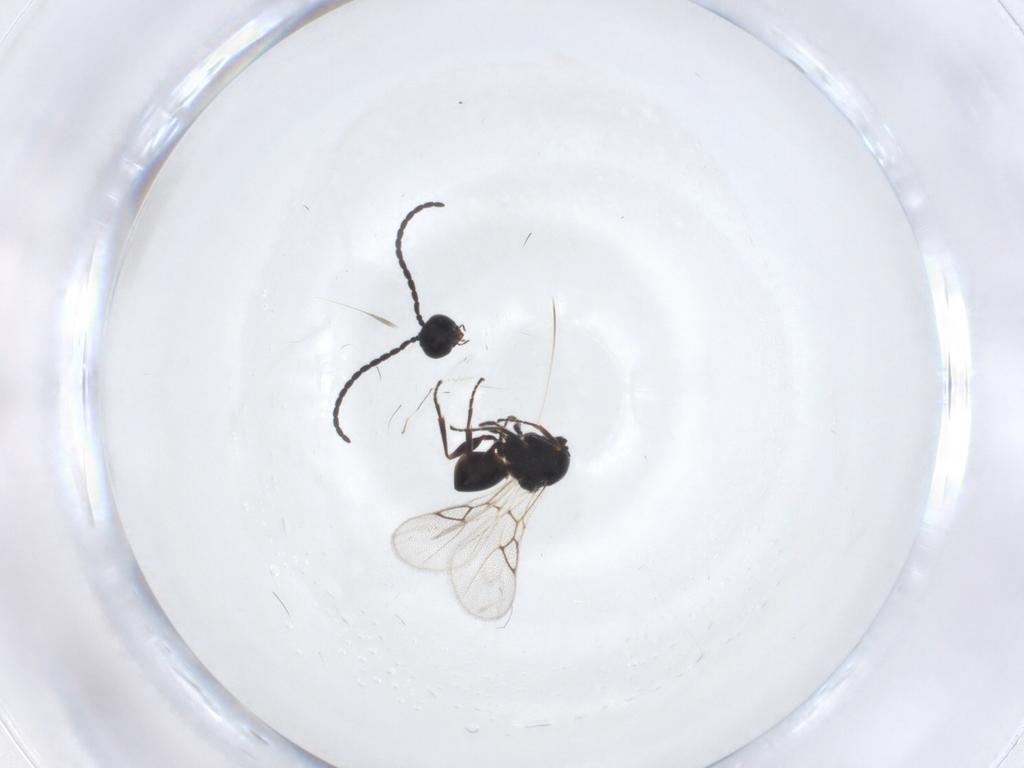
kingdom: Animalia
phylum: Arthropoda
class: Insecta
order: Hymenoptera
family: Figitidae
